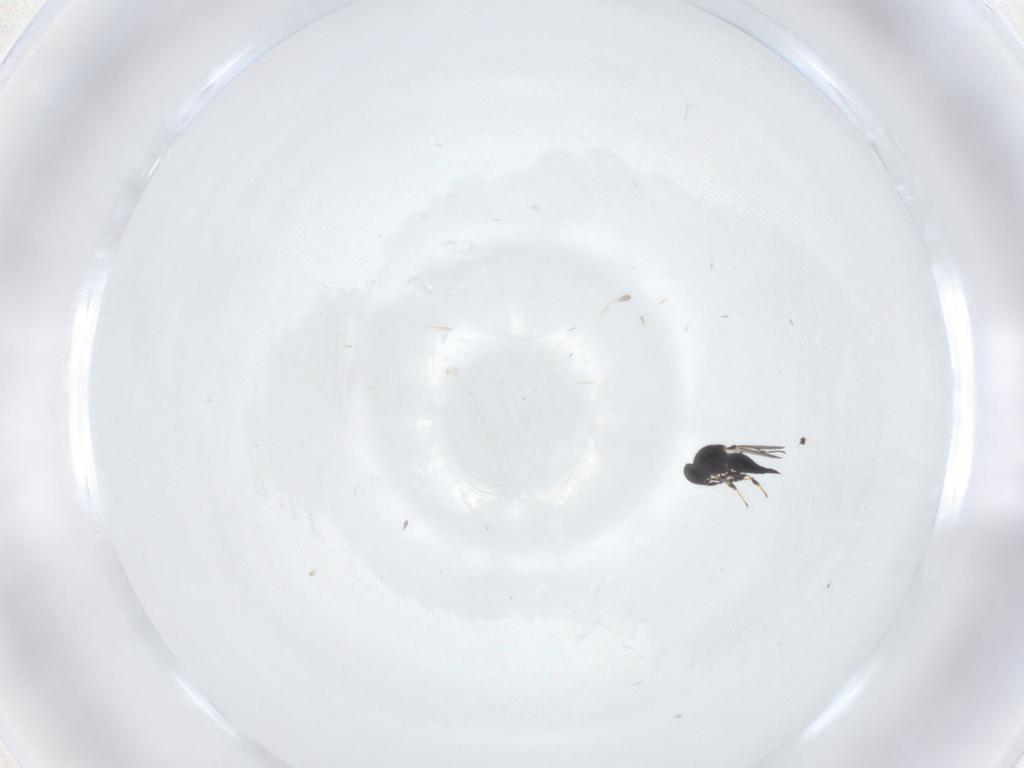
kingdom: Animalia
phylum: Arthropoda
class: Insecta
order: Hymenoptera
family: Platygastridae
